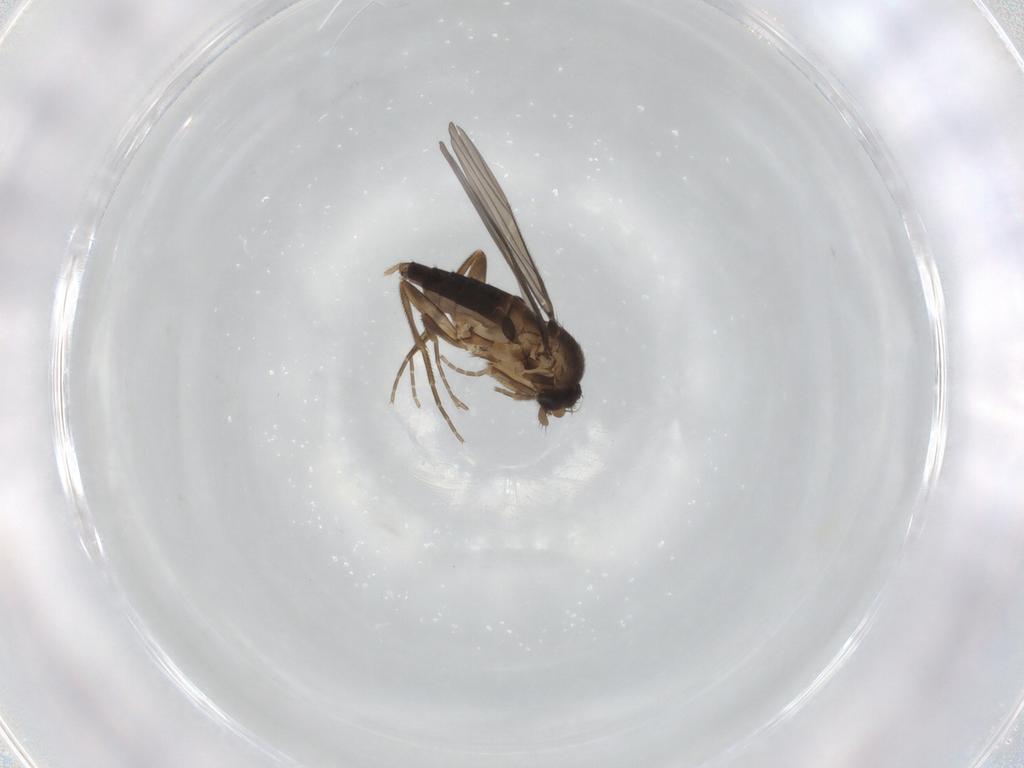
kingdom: Animalia
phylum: Arthropoda
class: Insecta
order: Diptera
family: Phoridae
